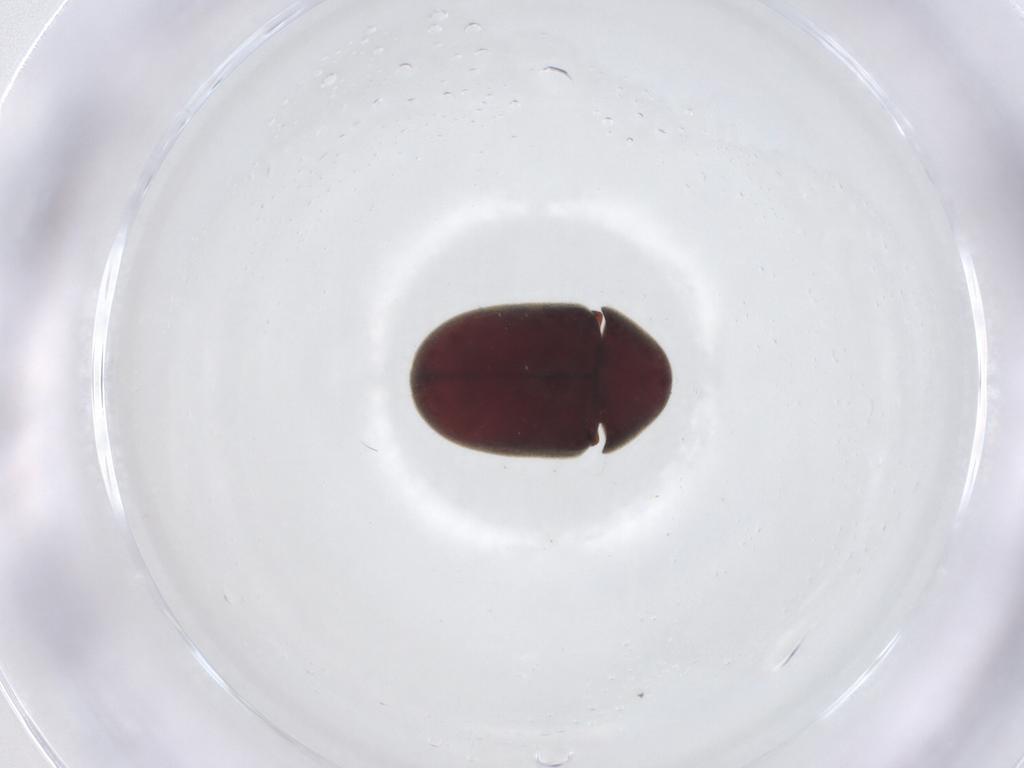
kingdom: Animalia
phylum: Arthropoda
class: Insecta
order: Coleoptera
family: Ptinidae
